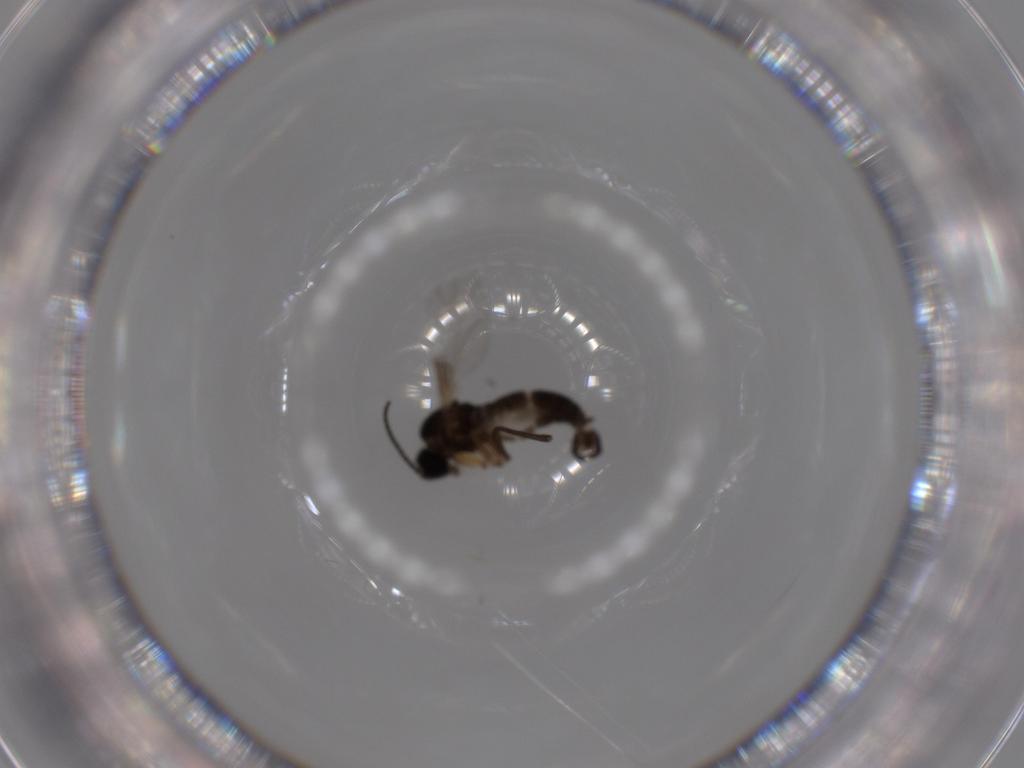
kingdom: Animalia
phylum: Arthropoda
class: Insecta
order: Diptera
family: Sciaridae
